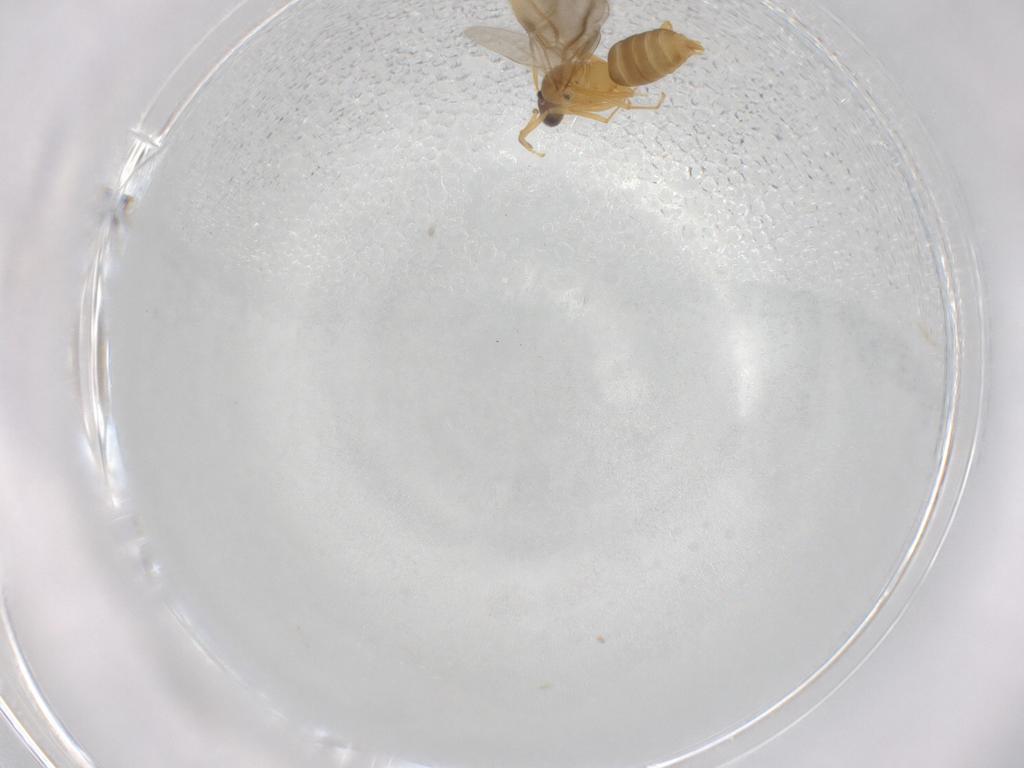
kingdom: Animalia
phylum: Arthropoda
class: Insecta
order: Hymenoptera
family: Formicidae
